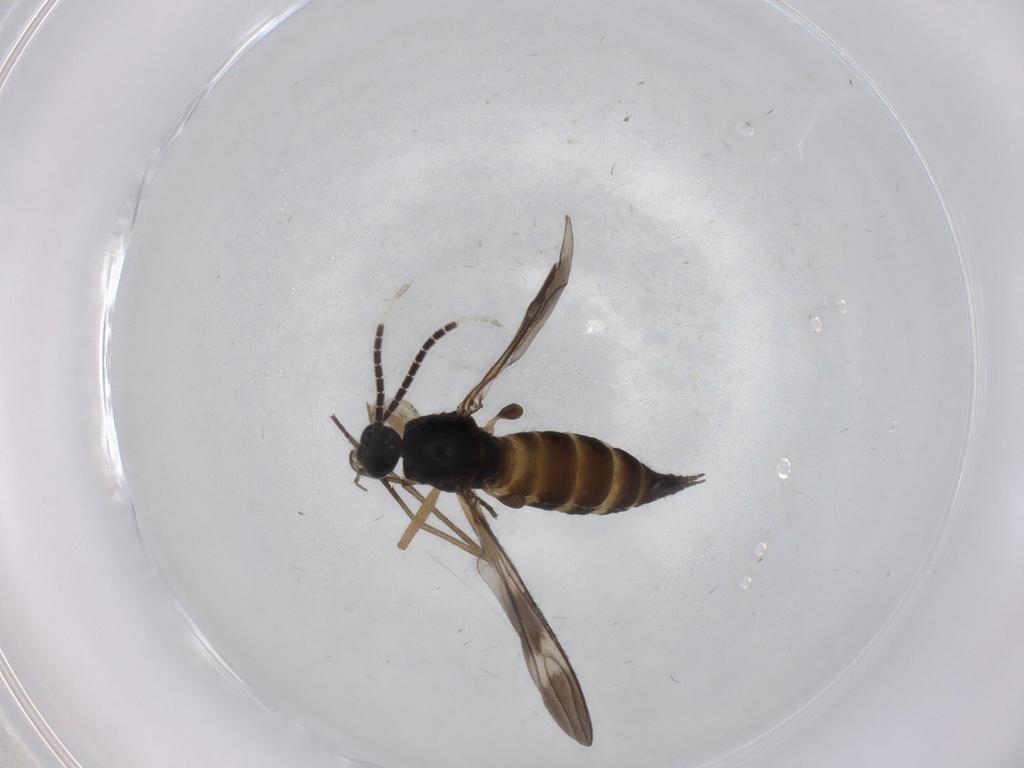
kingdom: Animalia
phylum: Arthropoda
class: Insecta
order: Diptera
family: Sciaridae
